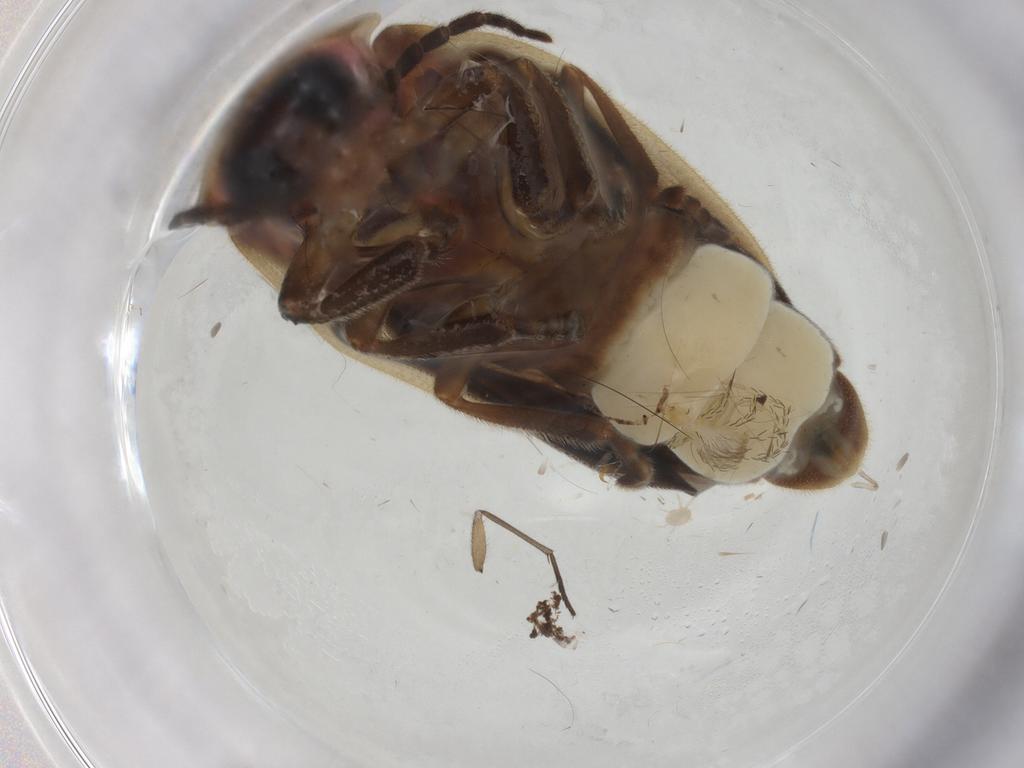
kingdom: Animalia
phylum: Arthropoda
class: Insecta
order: Coleoptera
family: Lampyridae
